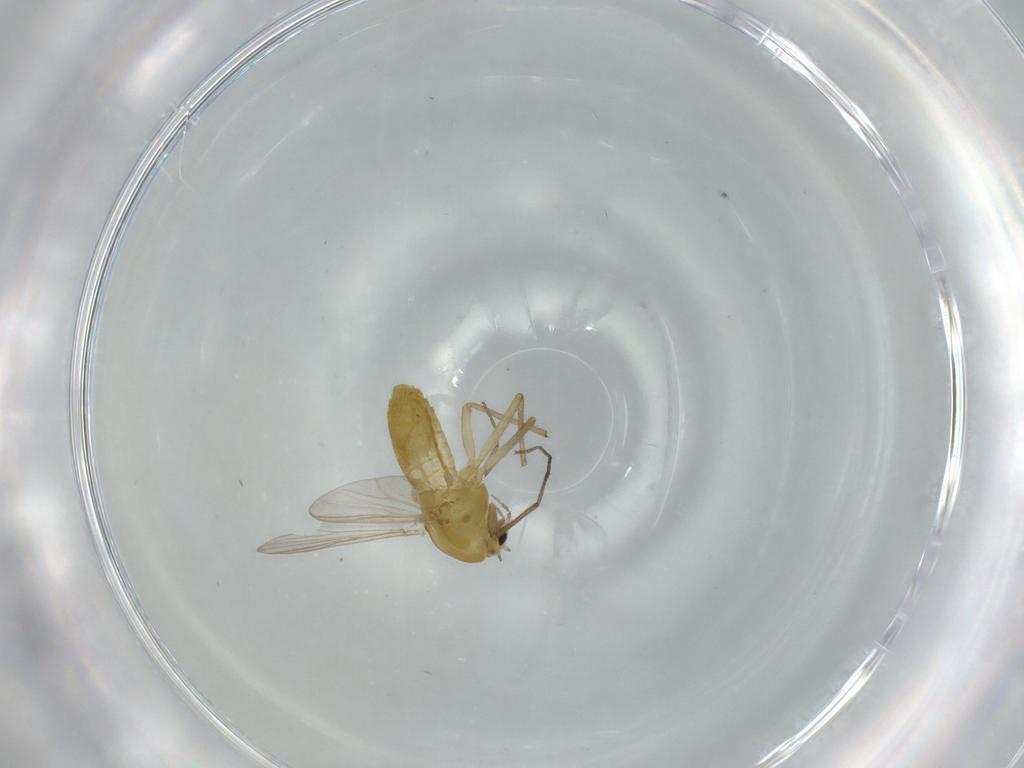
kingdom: Animalia
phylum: Arthropoda
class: Insecta
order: Diptera
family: Chironomidae
